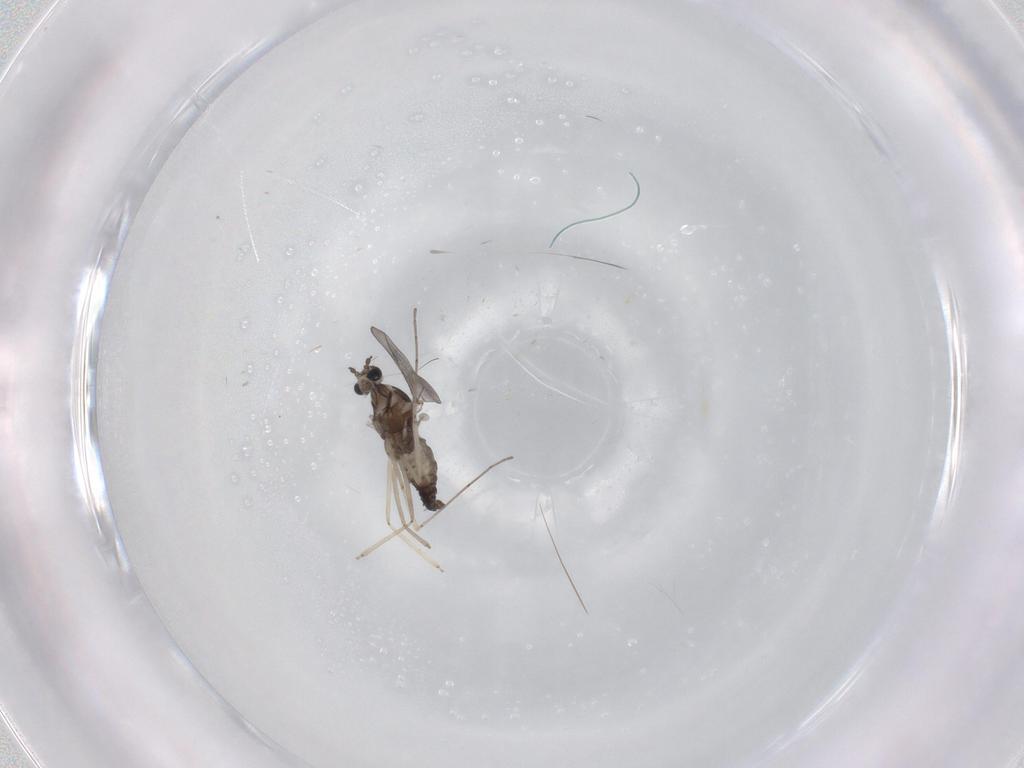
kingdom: Animalia
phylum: Arthropoda
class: Insecta
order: Diptera
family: Cecidomyiidae
